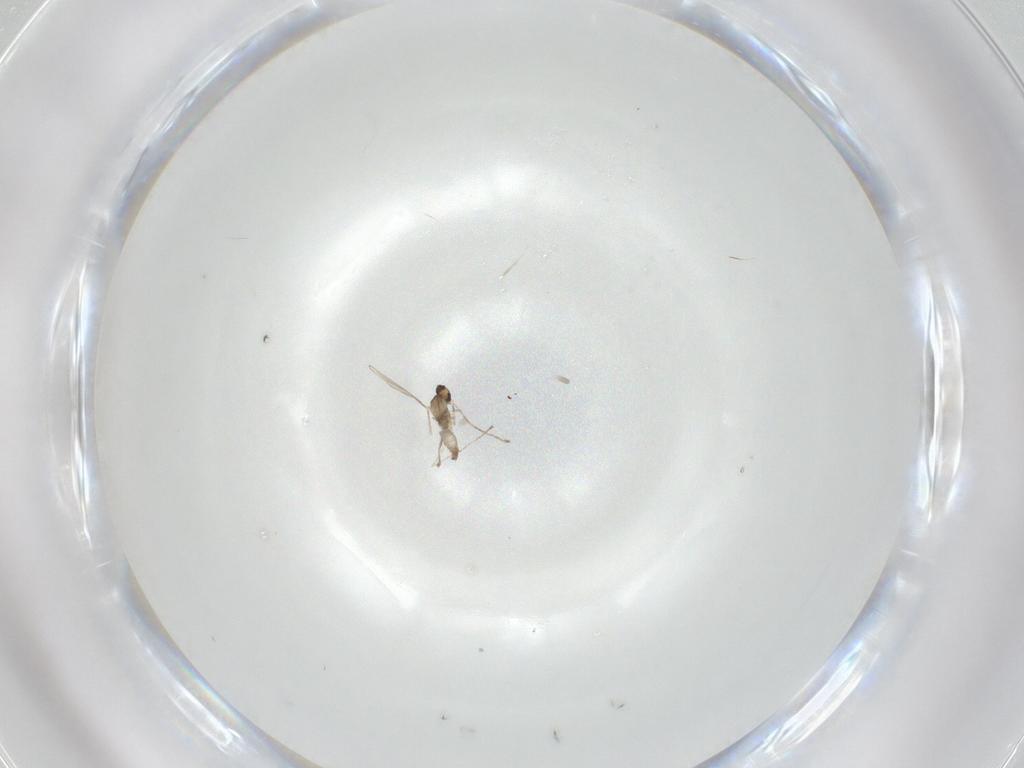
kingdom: Animalia
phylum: Arthropoda
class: Insecta
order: Diptera
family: Cecidomyiidae
